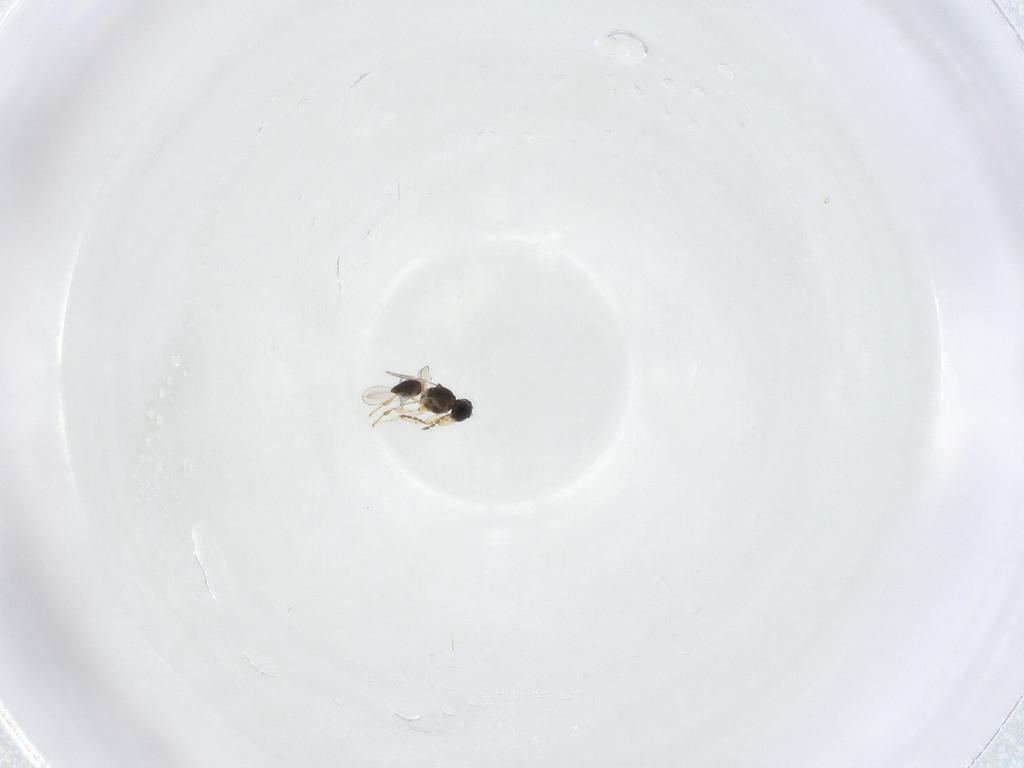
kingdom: Animalia
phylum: Arthropoda
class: Insecta
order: Hymenoptera
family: Platygastridae
